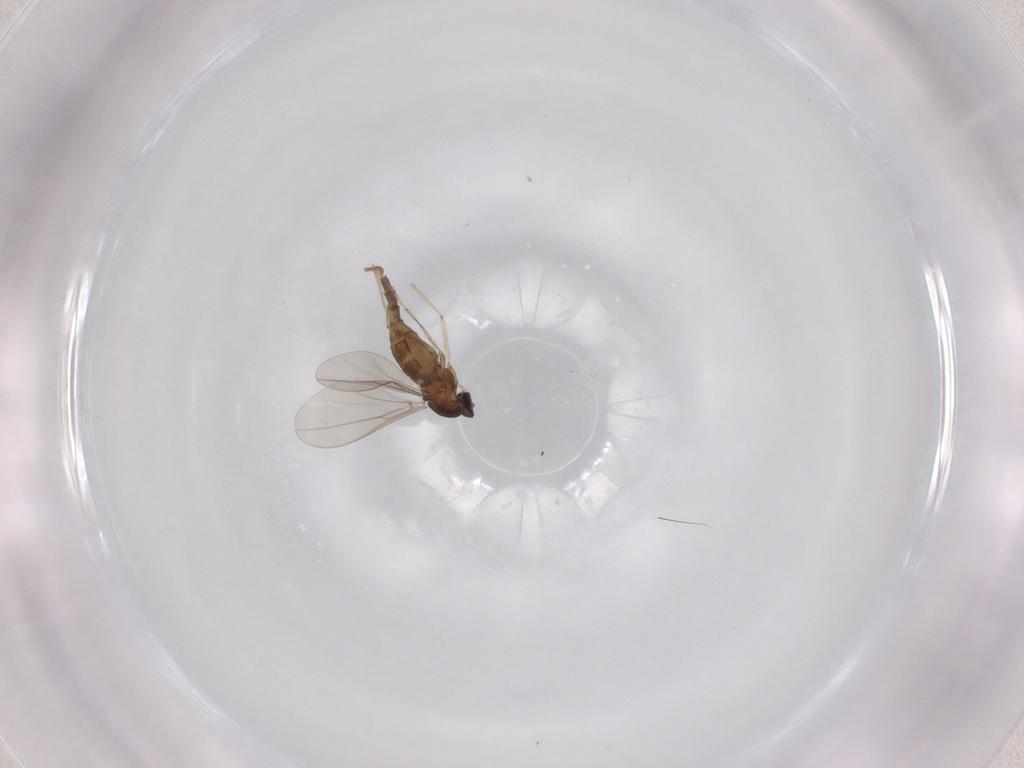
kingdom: Animalia
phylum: Arthropoda
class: Insecta
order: Diptera
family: Cecidomyiidae
